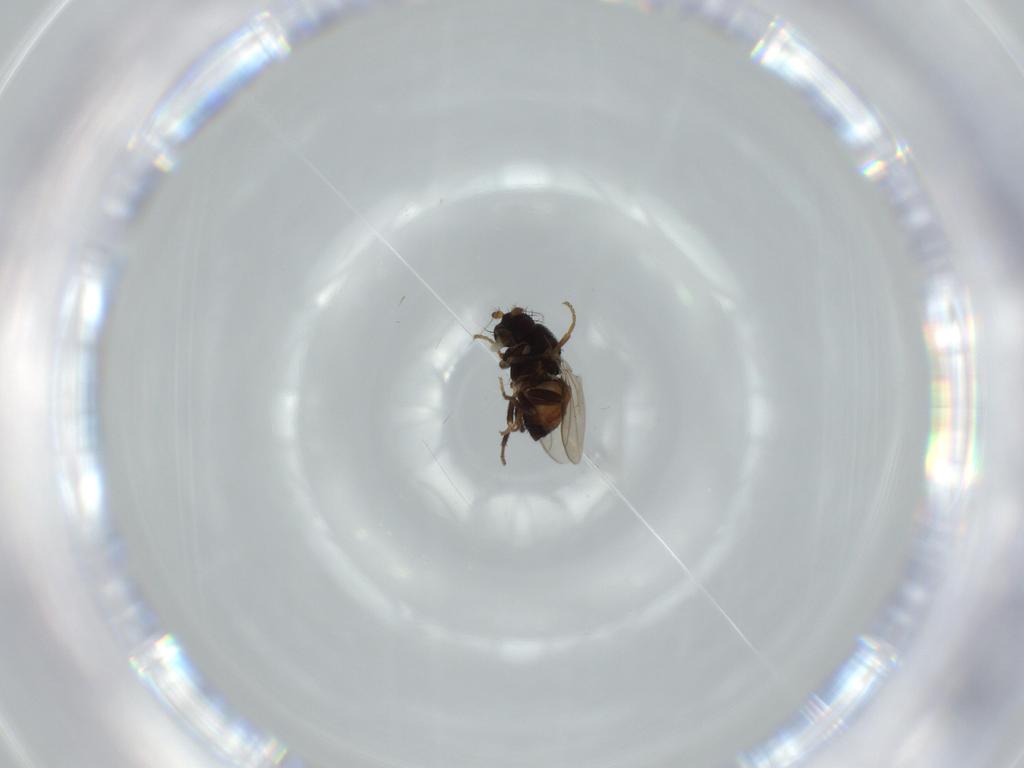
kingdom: Animalia
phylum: Arthropoda
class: Insecta
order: Diptera
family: Sphaeroceridae
